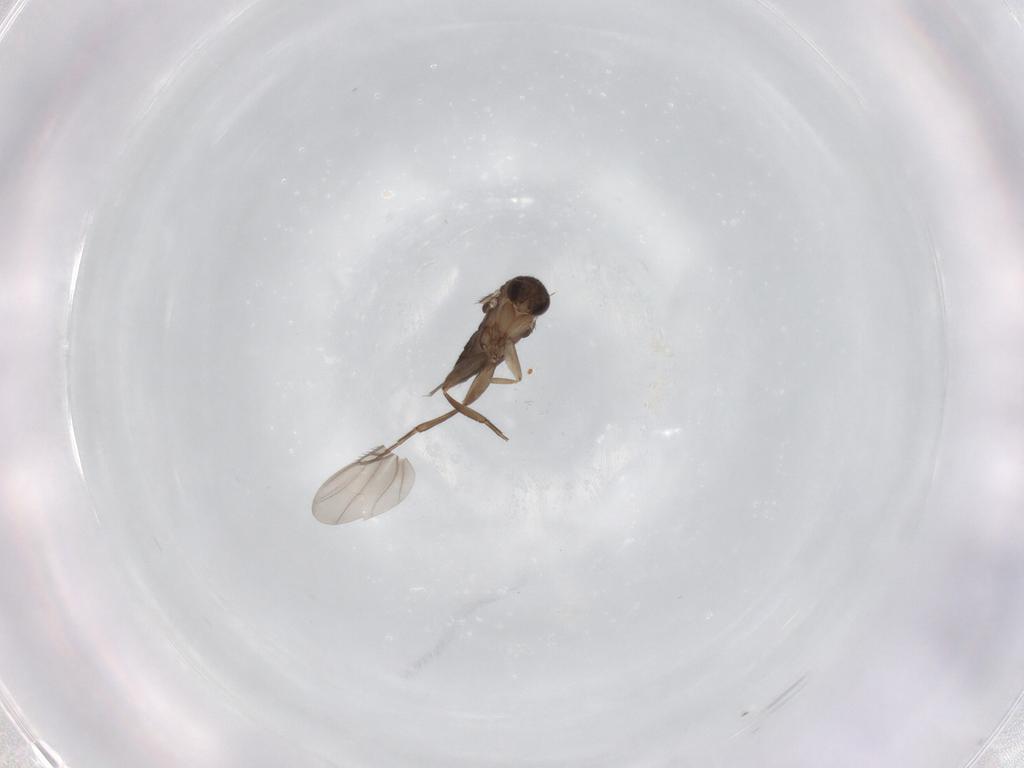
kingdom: Animalia
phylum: Arthropoda
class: Insecta
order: Diptera
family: Phoridae
